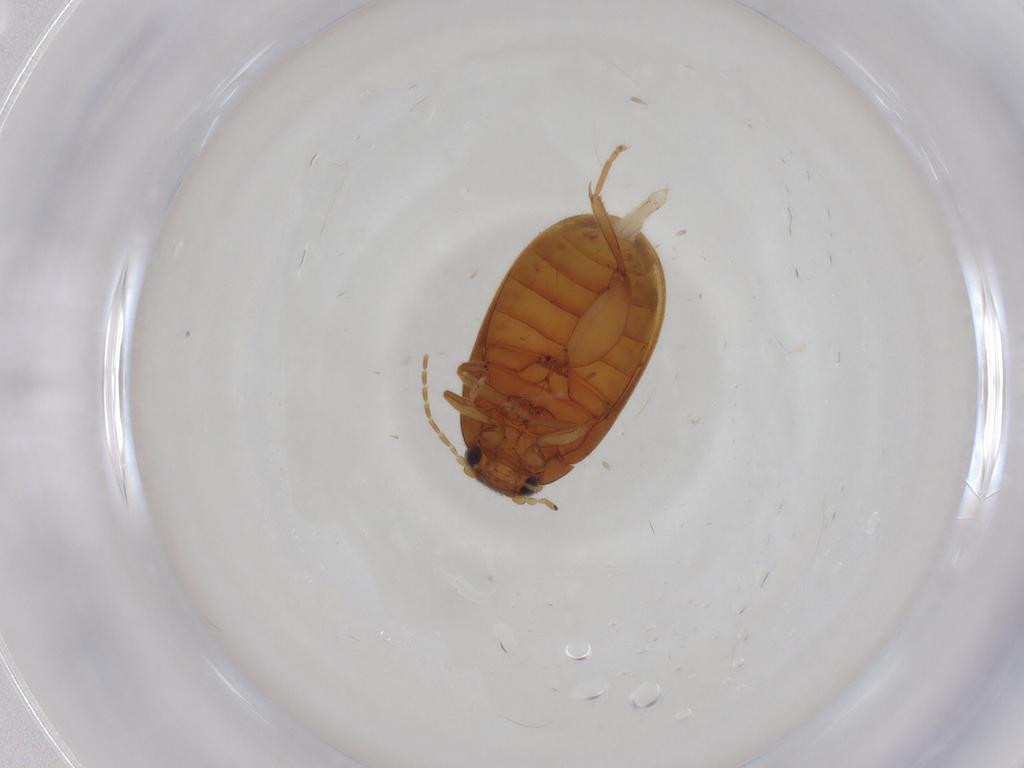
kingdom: Animalia
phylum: Arthropoda
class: Insecta
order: Coleoptera
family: Scirtidae
